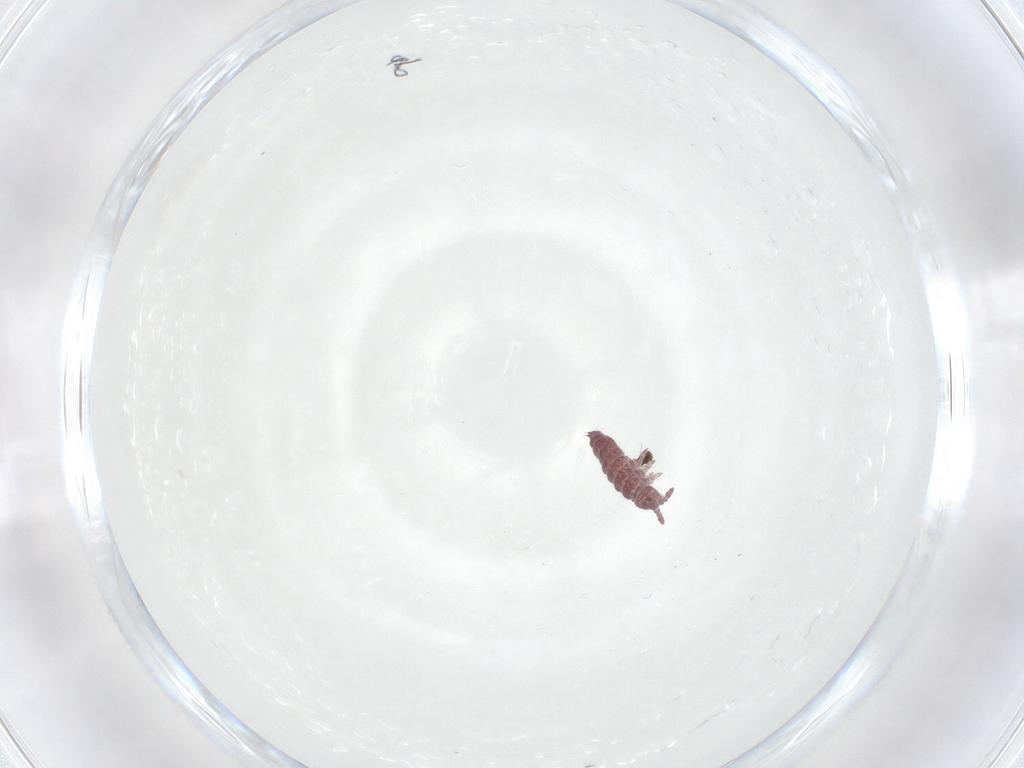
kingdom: Animalia
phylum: Arthropoda
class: Collembola
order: Poduromorpha
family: Hypogastruridae
